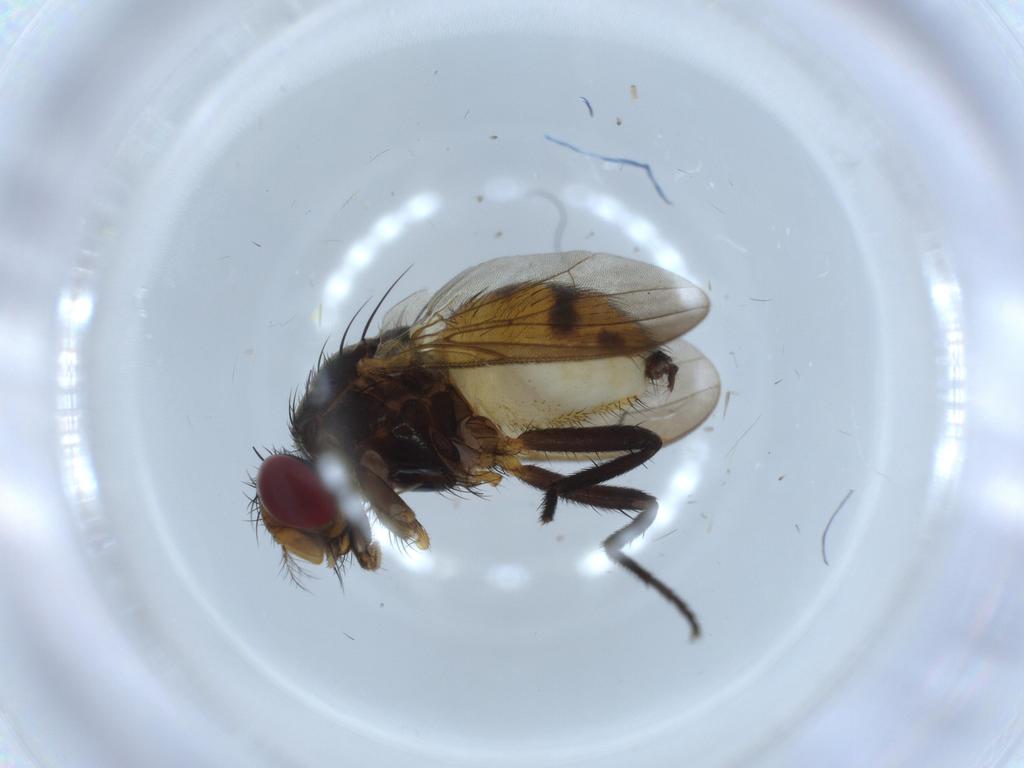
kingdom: Animalia
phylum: Arthropoda
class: Insecta
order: Diptera
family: Anthomyiidae
